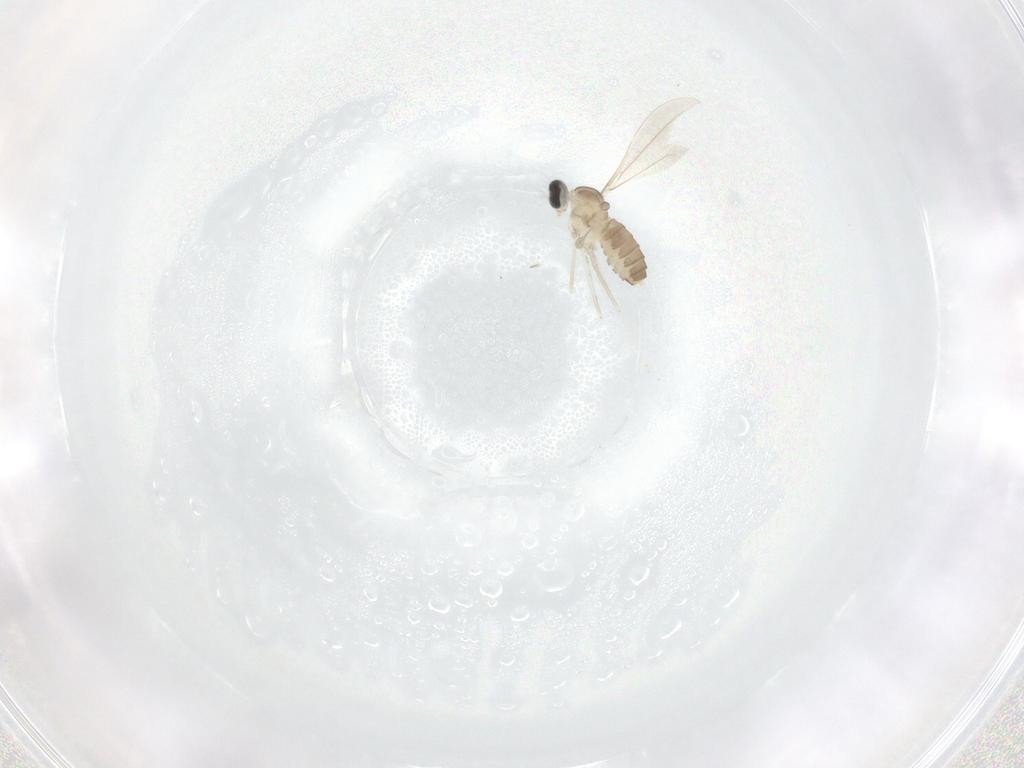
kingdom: Animalia
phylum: Arthropoda
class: Insecta
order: Diptera
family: Cecidomyiidae
